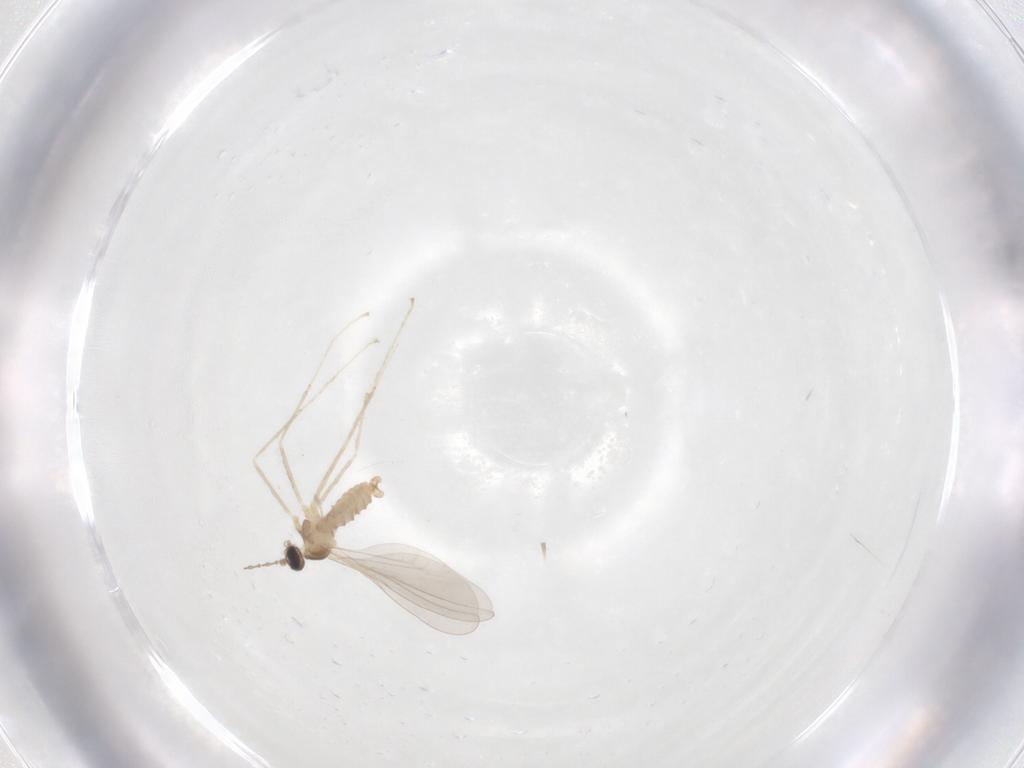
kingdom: Animalia
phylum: Arthropoda
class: Insecta
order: Diptera
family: Cecidomyiidae
